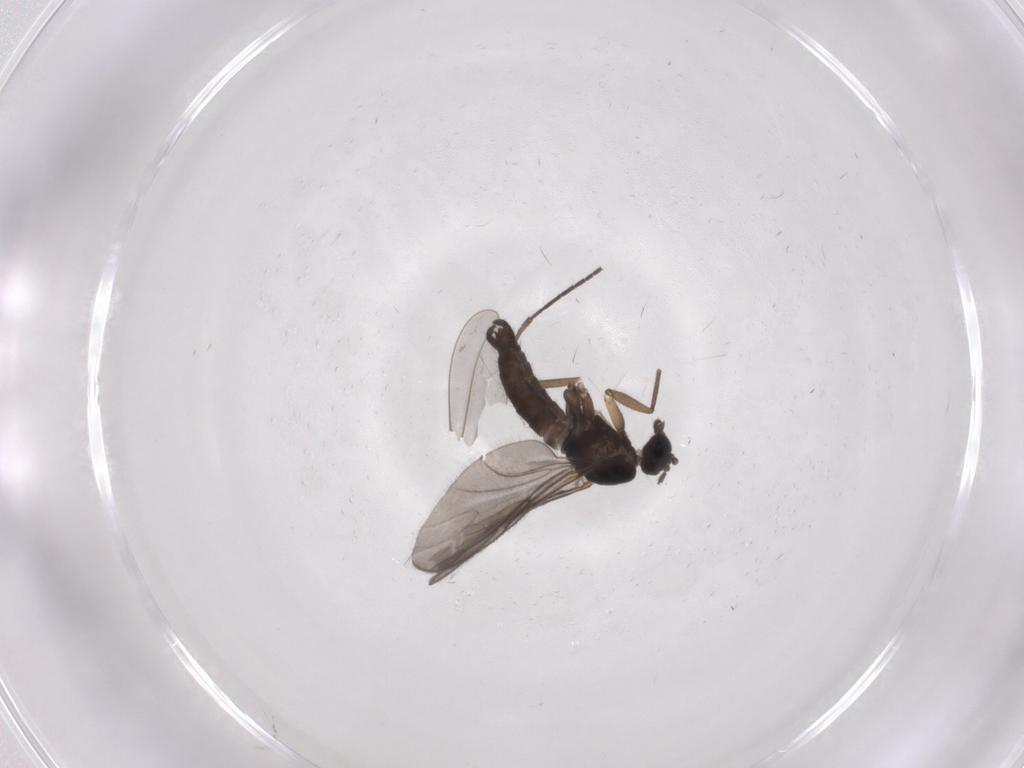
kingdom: Animalia
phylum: Arthropoda
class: Insecta
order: Diptera
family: Sciaridae
